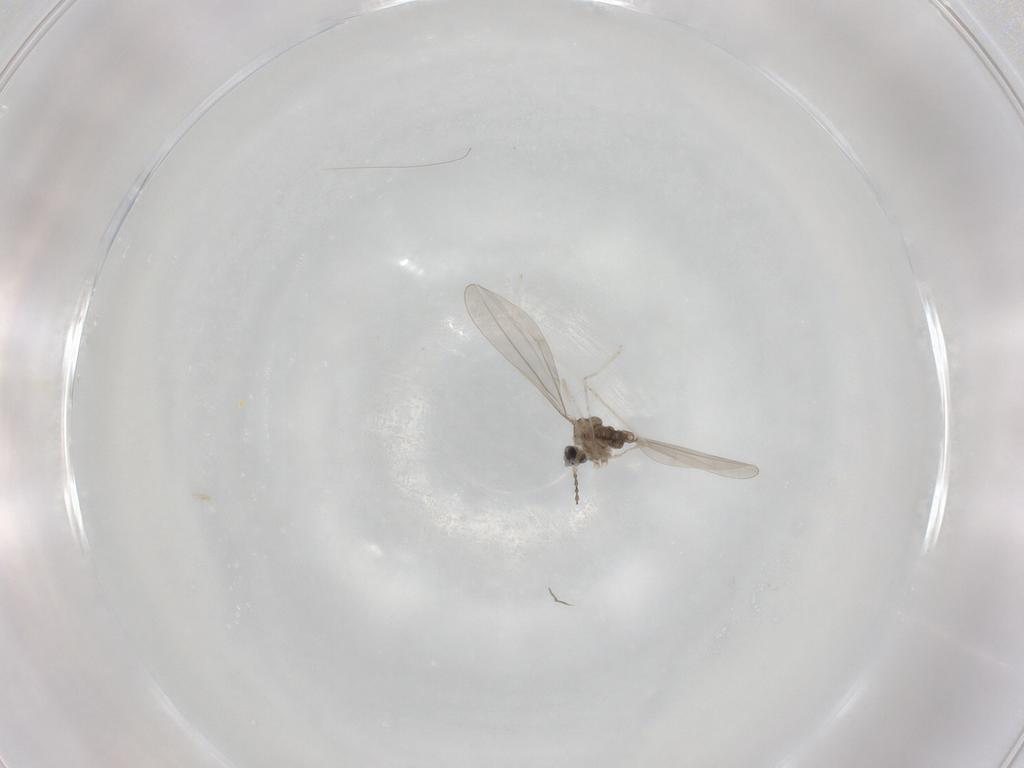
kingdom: Animalia
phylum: Arthropoda
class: Insecta
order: Diptera
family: Cecidomyiidae
